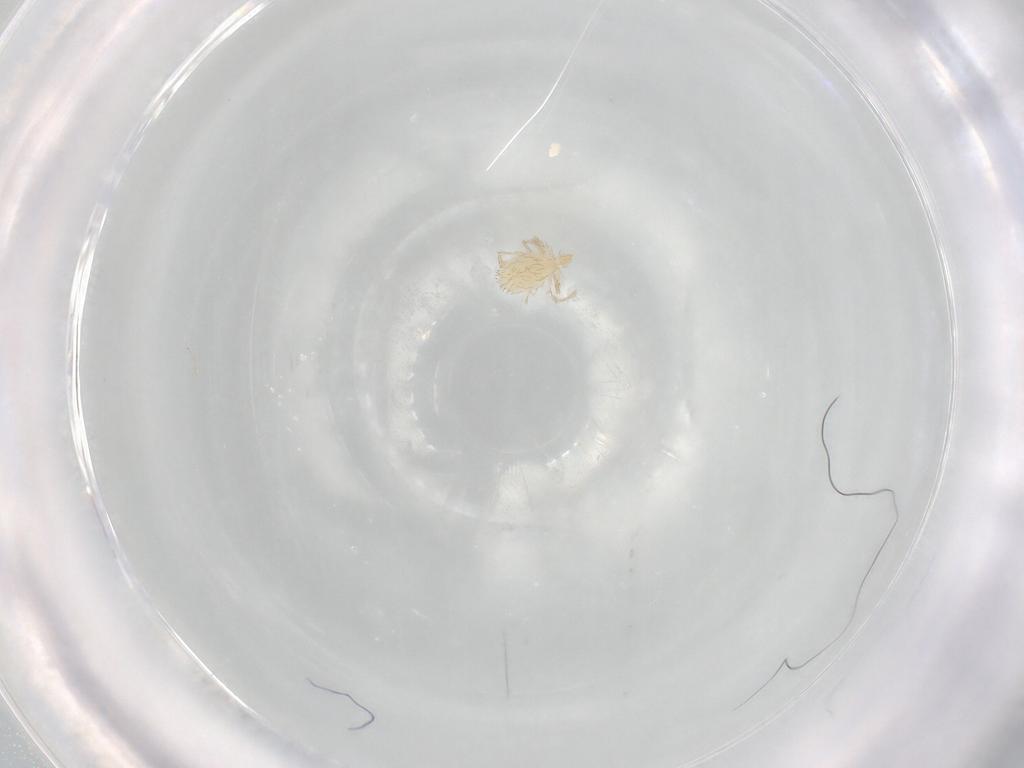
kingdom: Animalia
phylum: Arthropoda
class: Arachnida
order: Trombidiformes
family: Erythraeidae
